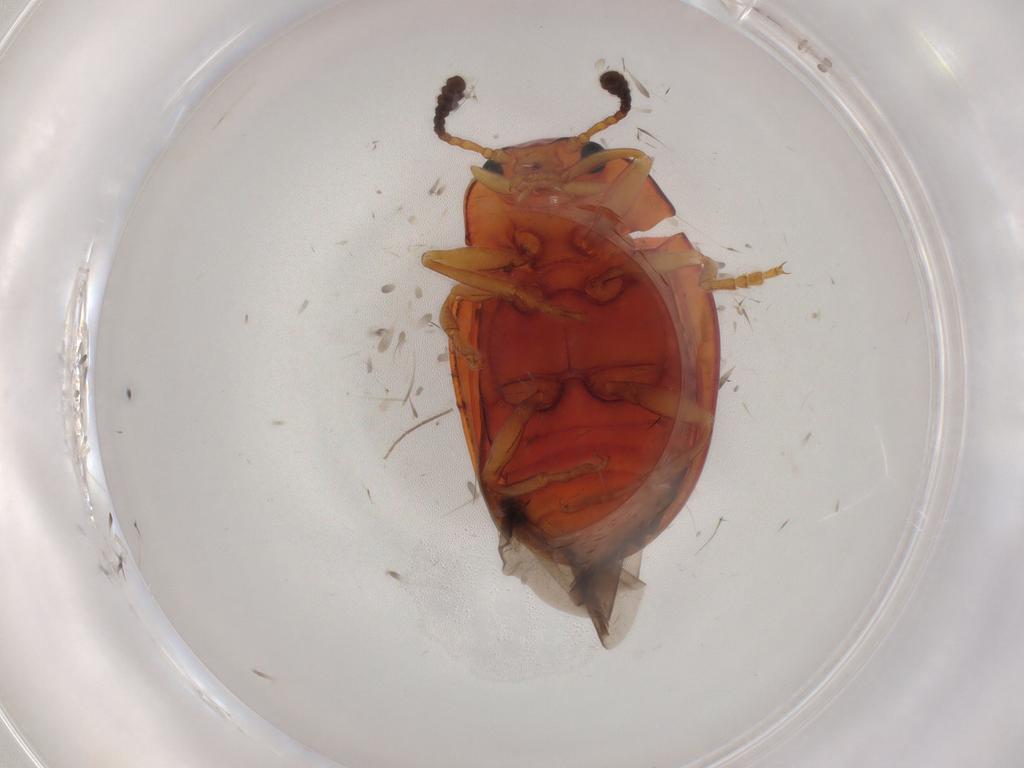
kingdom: Animalia
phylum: Arthropoda
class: Insecta
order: Coleoptera
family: Erotylidae
